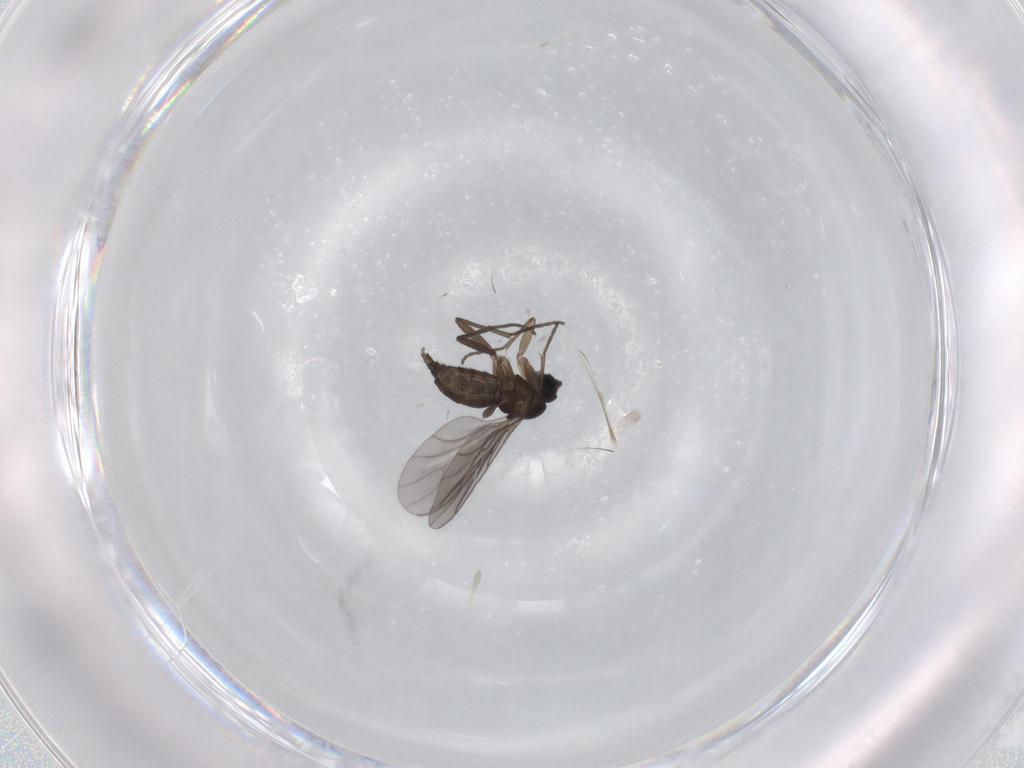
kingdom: Animalia
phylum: Arthropoda
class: Insecta
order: Diptera
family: Sciaridae
